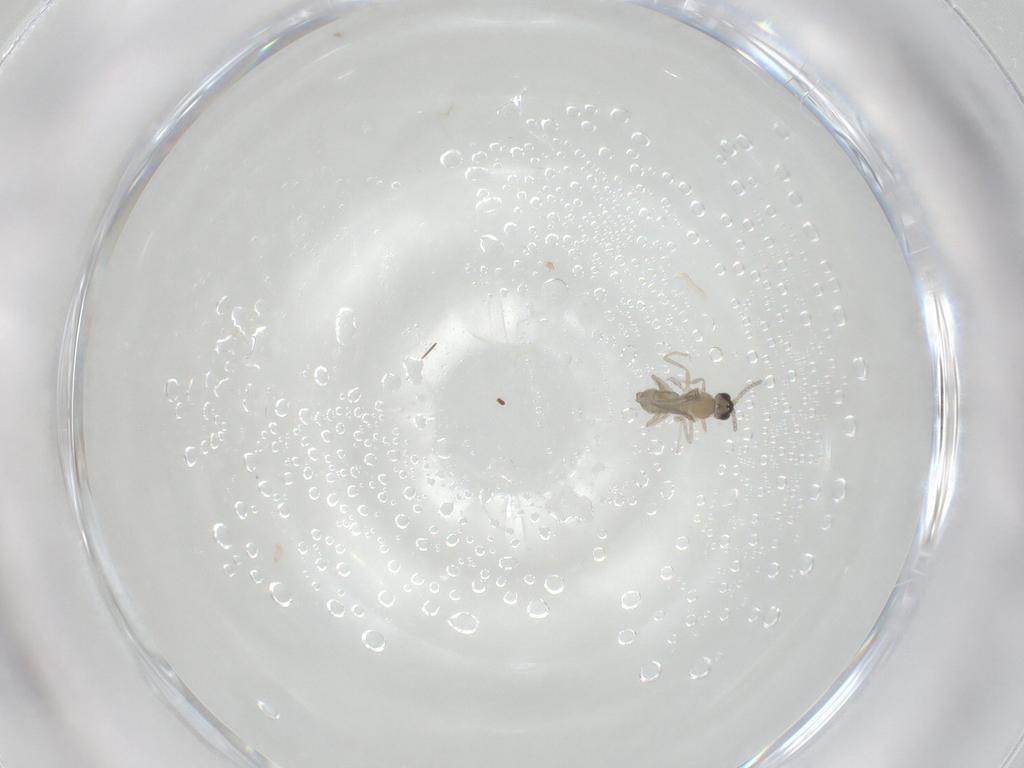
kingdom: Animalia
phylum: Arthropoda
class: Insecta
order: Diptera
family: Cecidomyiidae
